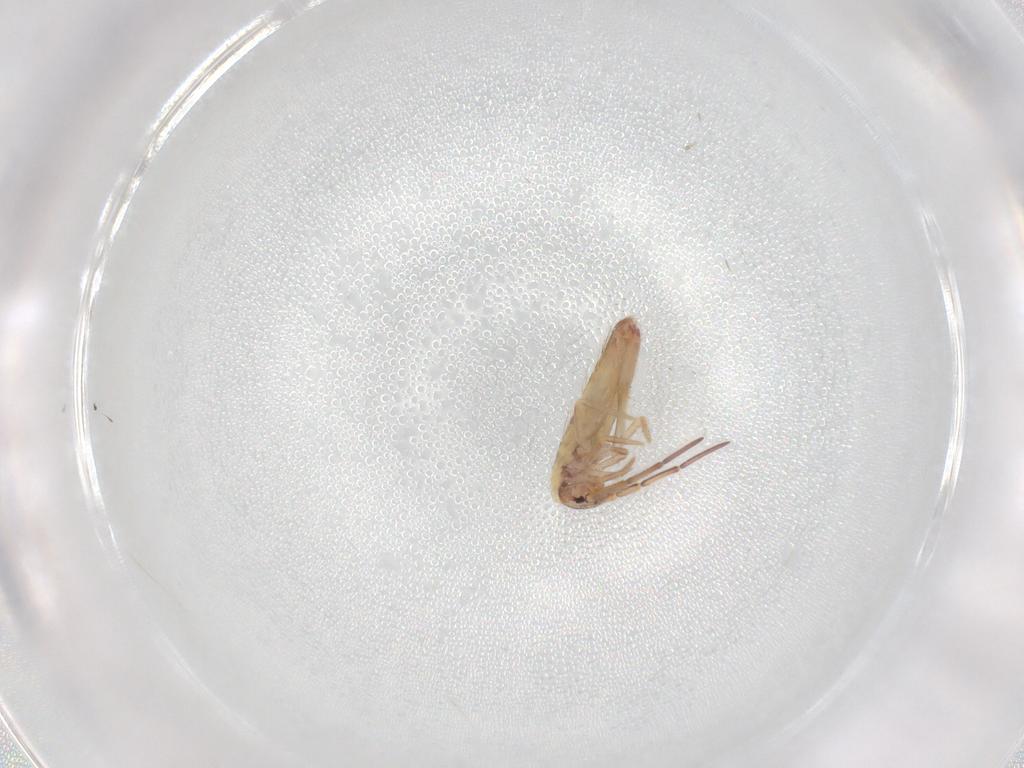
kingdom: Animalia
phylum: Arthropoda
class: Collembola
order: Entomobryomorpha
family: Entomobryidae
